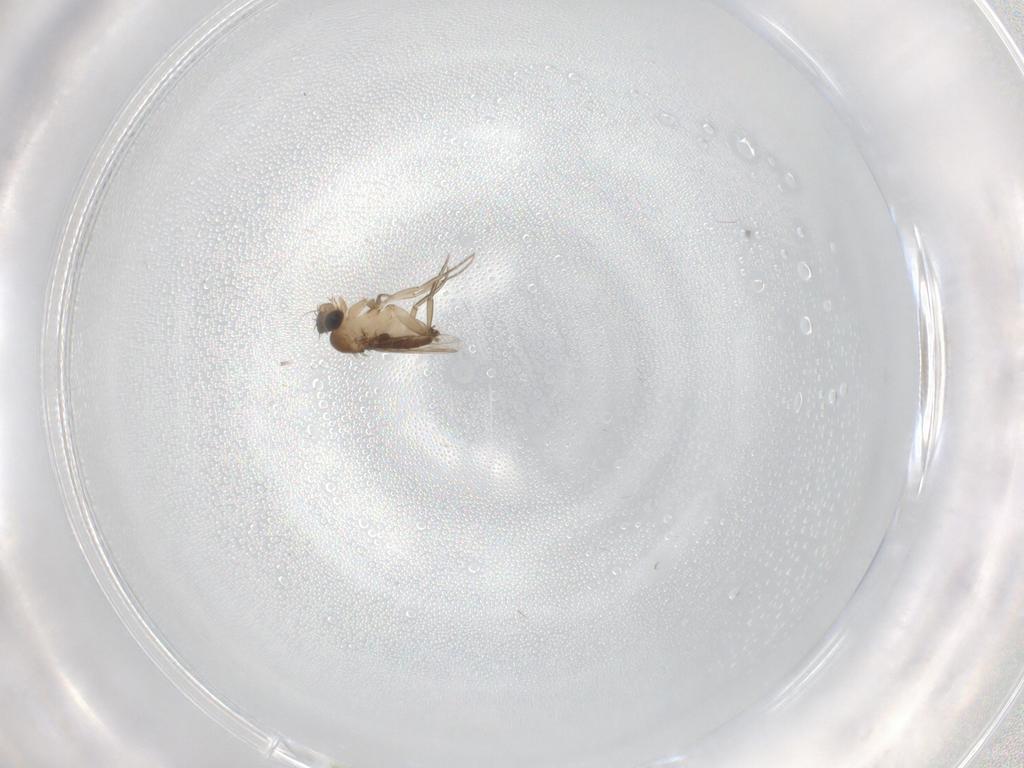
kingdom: Animalia
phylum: Arthropoda
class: Insecta
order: Diptera
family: Phoridae
